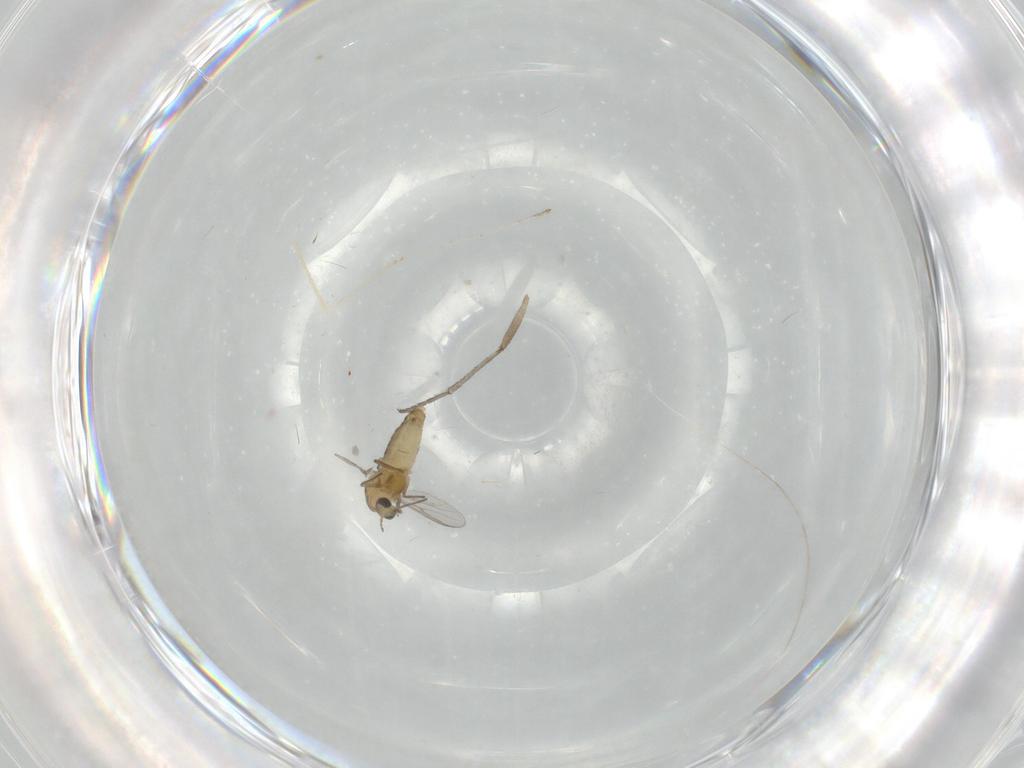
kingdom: Animalia
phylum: Arthropoda
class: Insecta
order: Diptera
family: Cecidomyiidae
